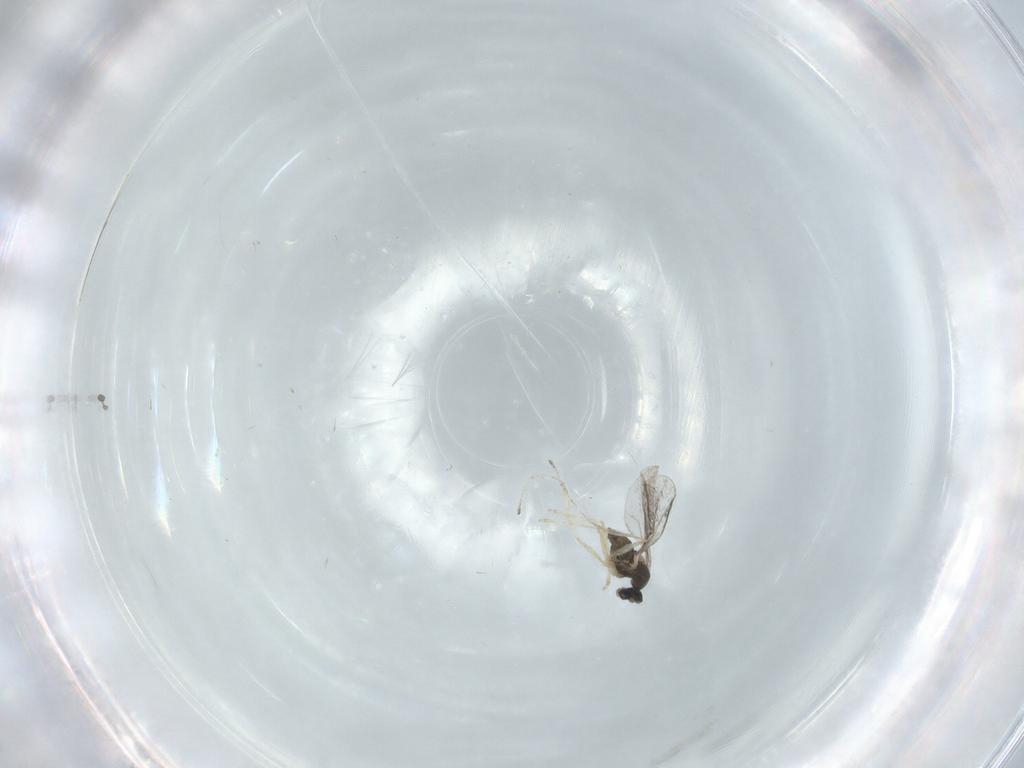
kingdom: Animalia
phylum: Arthropoda
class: Insecta
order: Diptera
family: Cecidomyiidae
